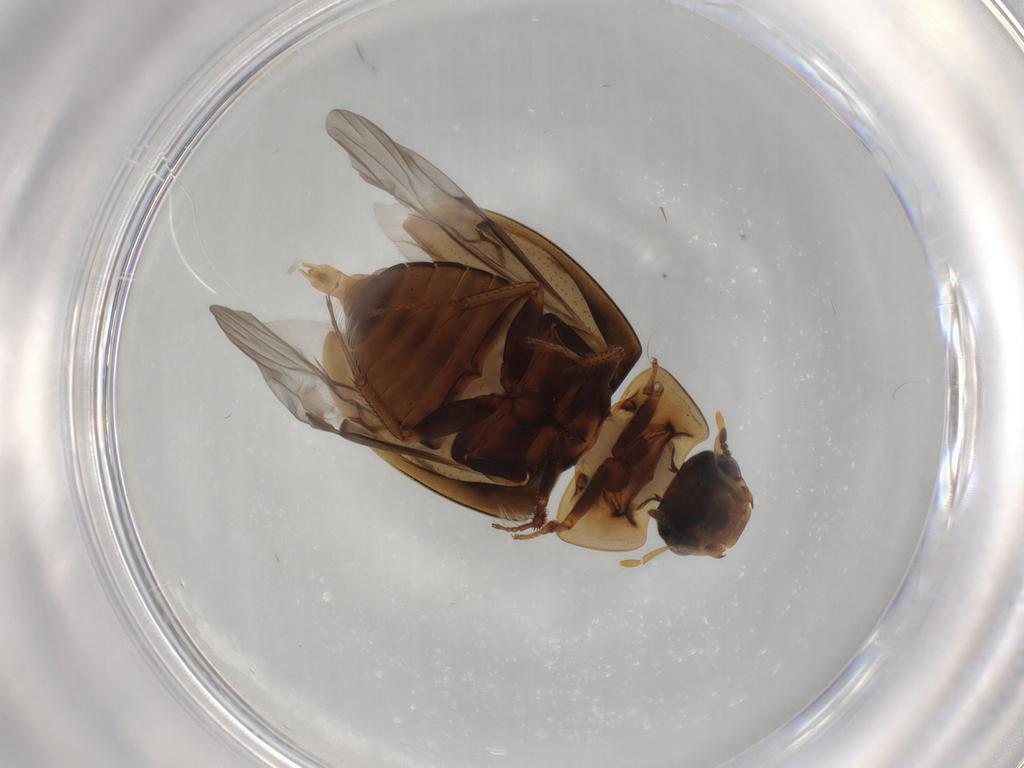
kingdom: Animalia
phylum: Arthropoda
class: Insecta
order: Coleoptera
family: Hydrophilidae
